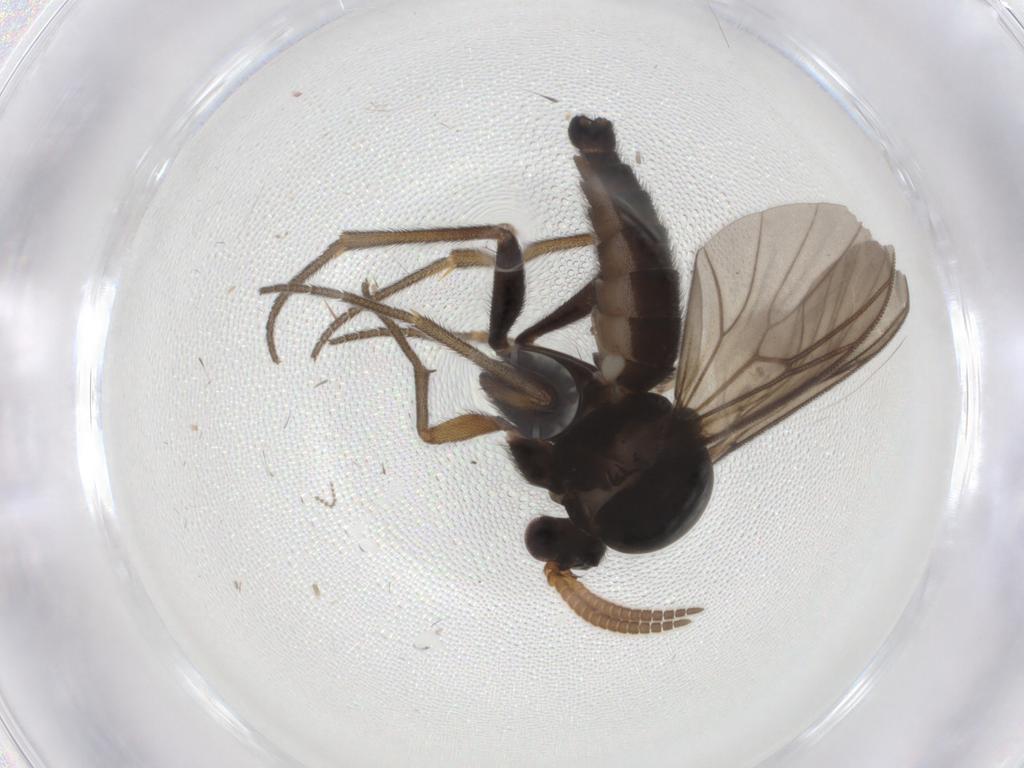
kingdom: Animalia
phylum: Arthropoda
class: Insecta
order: Diptera
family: Mycetophilidae
